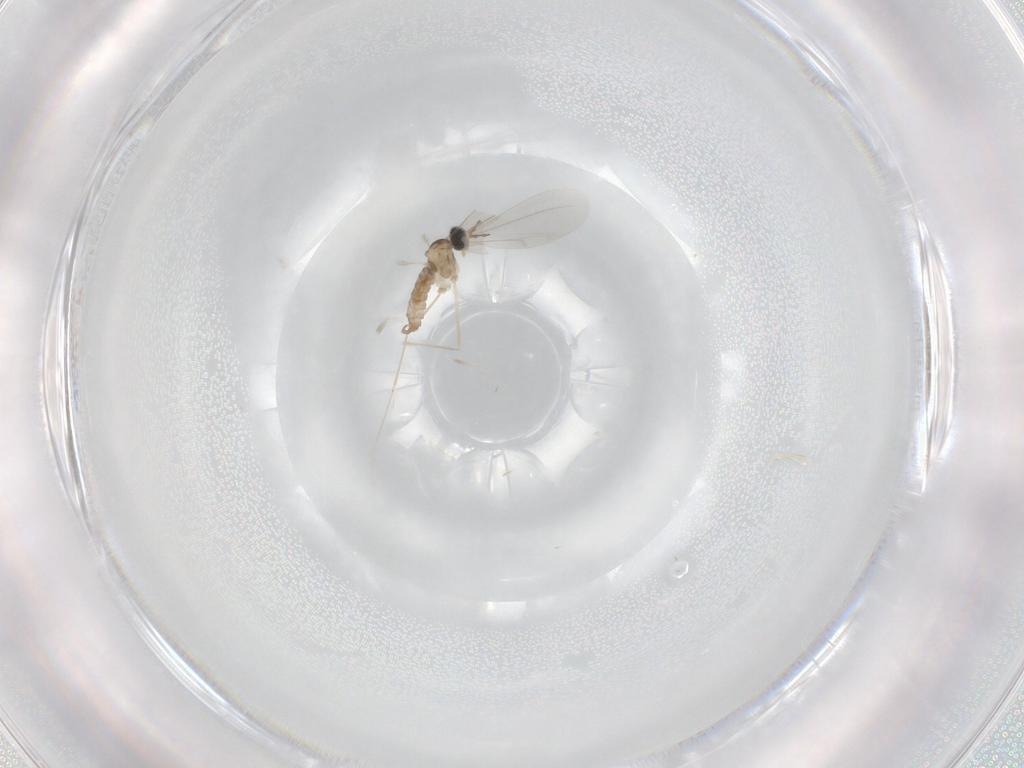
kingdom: Animalia
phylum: Arthropoda
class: Insecta
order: Diptera
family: Cecidomyiidae
